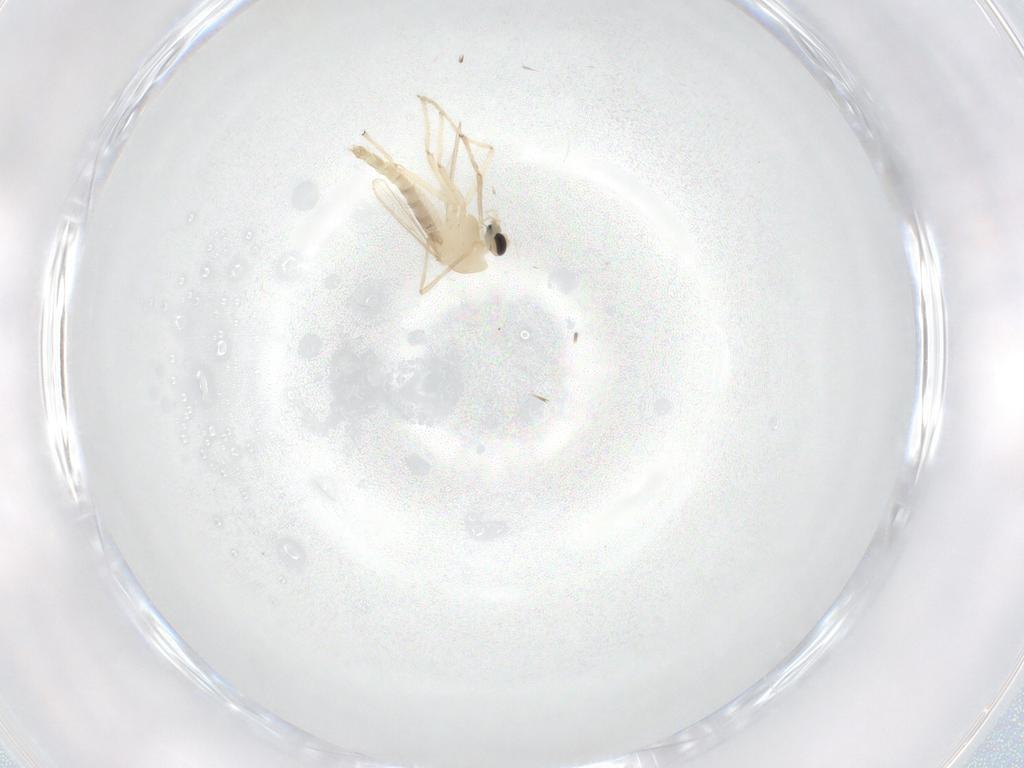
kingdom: Animalia
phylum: Arthropoda
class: Insecta
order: Diptera
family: Chironomidae
